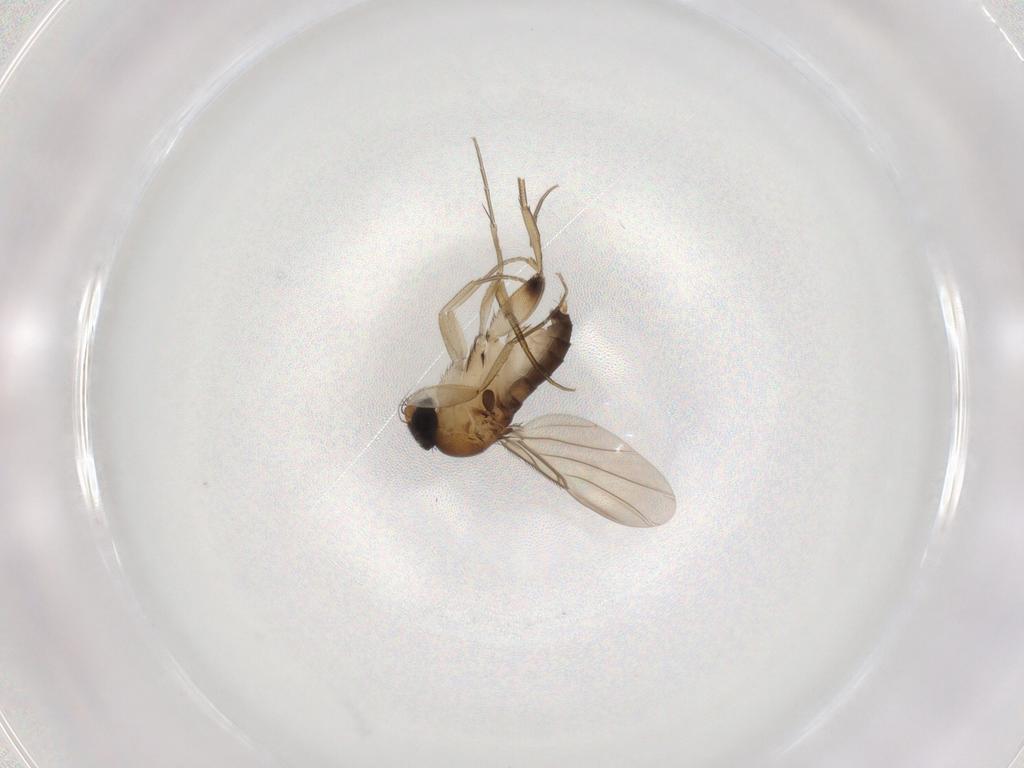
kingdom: Animalia
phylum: Arthropoda
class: Insecta
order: Diptera
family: Phoridae
